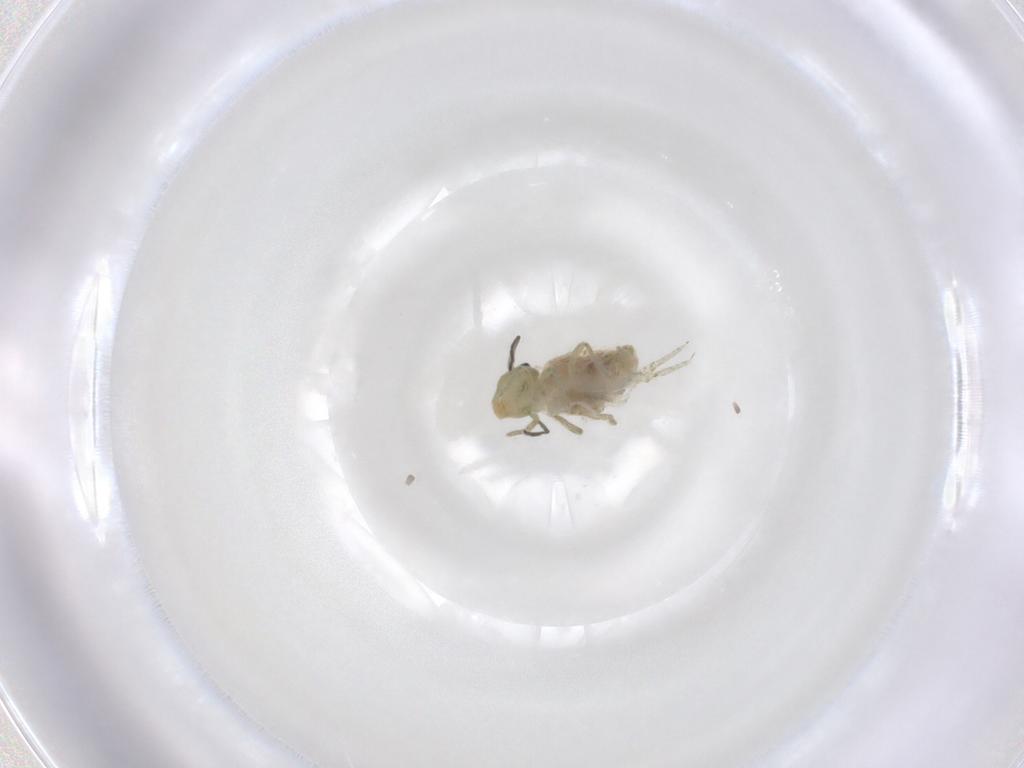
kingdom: Animalia
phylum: Arthropoda
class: Collembola
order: Symphypleona
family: Sminthuridae
